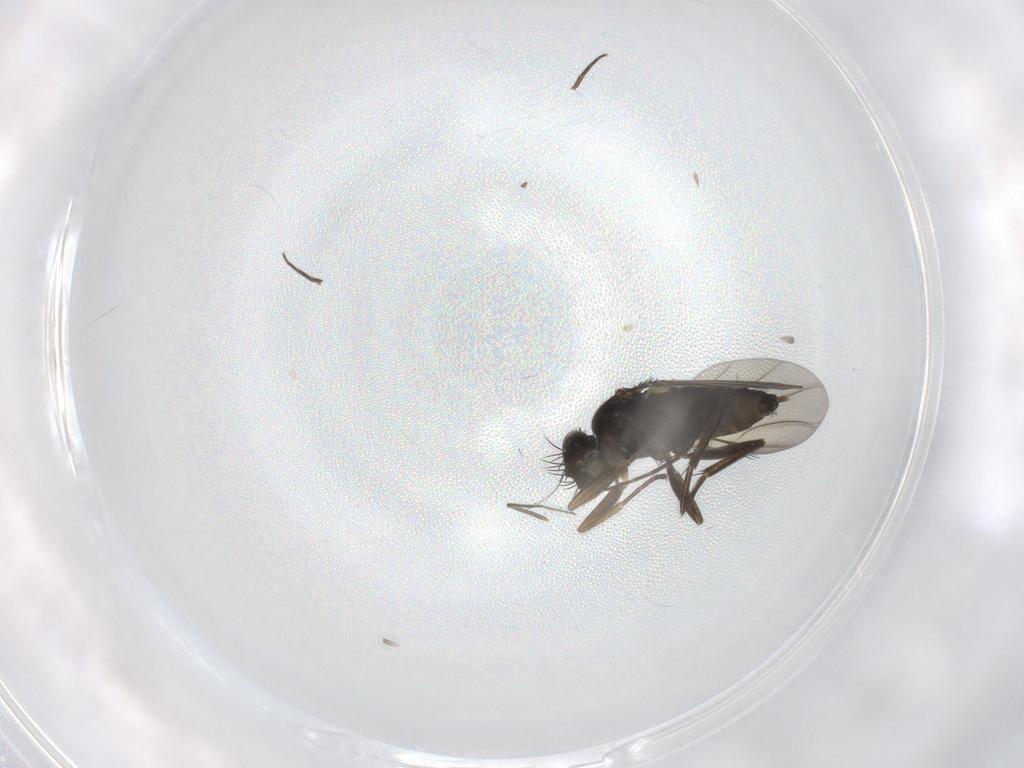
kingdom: Animalia
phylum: Arthropoda
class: Insecta
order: Diptera
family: Phoridae
